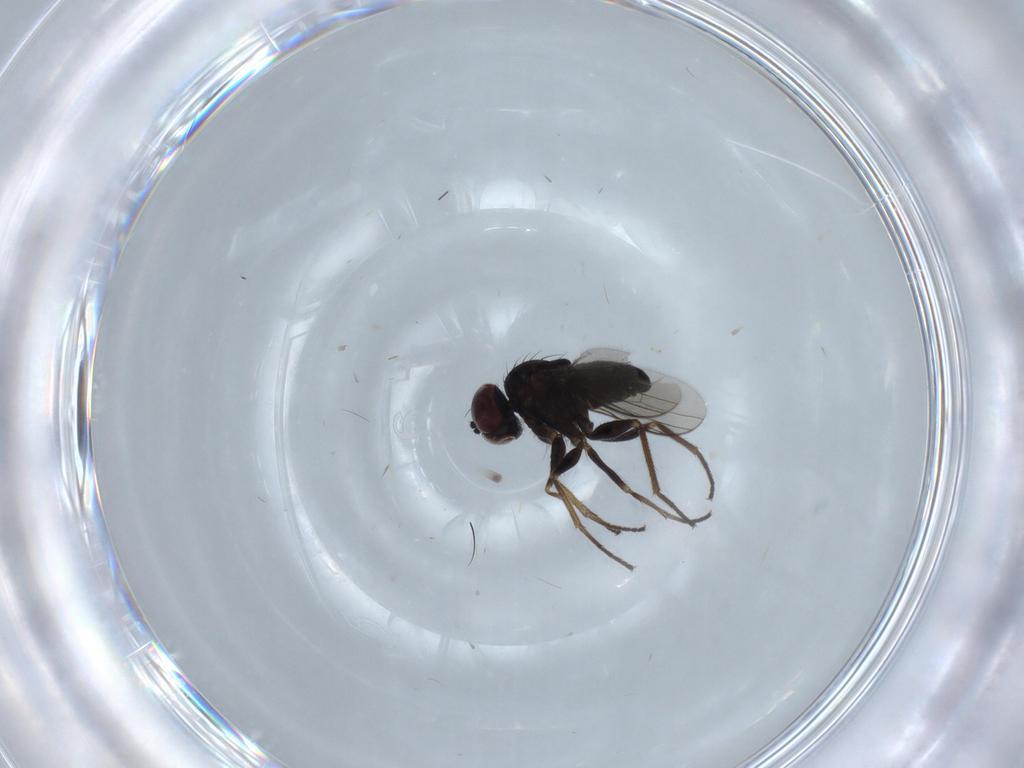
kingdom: Animalia
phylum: Arthropoda
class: Insecta
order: Diptera
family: Dolichopodidae
